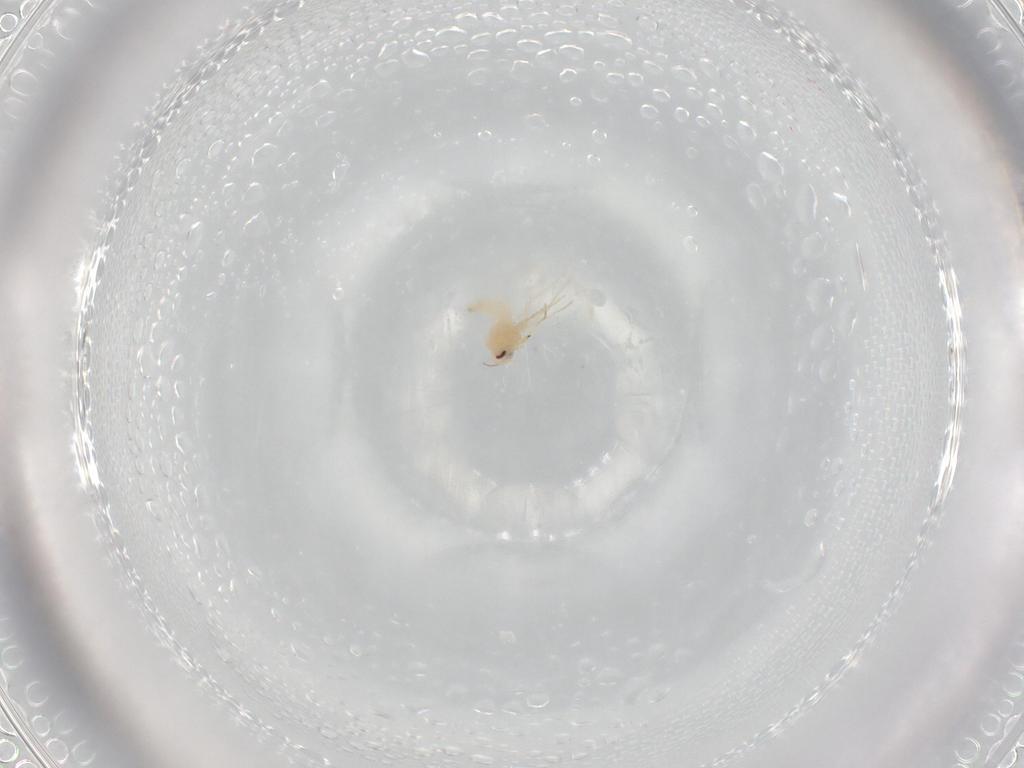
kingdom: Animalia
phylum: Arthropoda
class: Insecta
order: Hemiptera
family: Aleyrodidae
